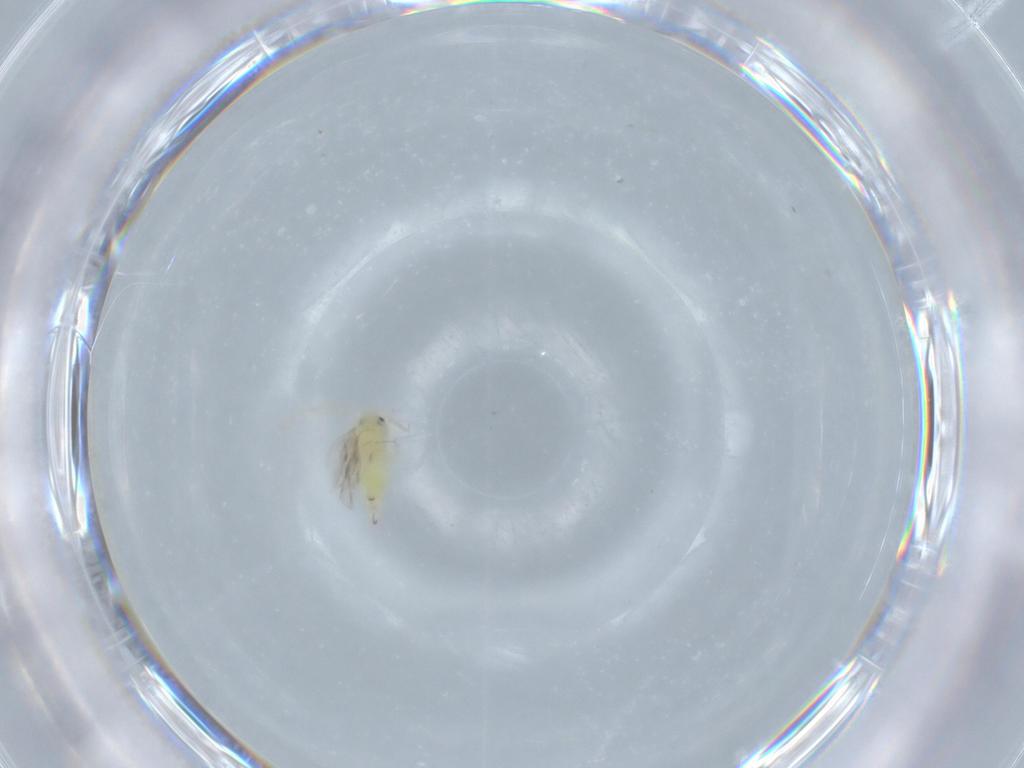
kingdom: Animalia
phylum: Arthropoda
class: Insecta
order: Hemiptera
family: Aleyrodidae
